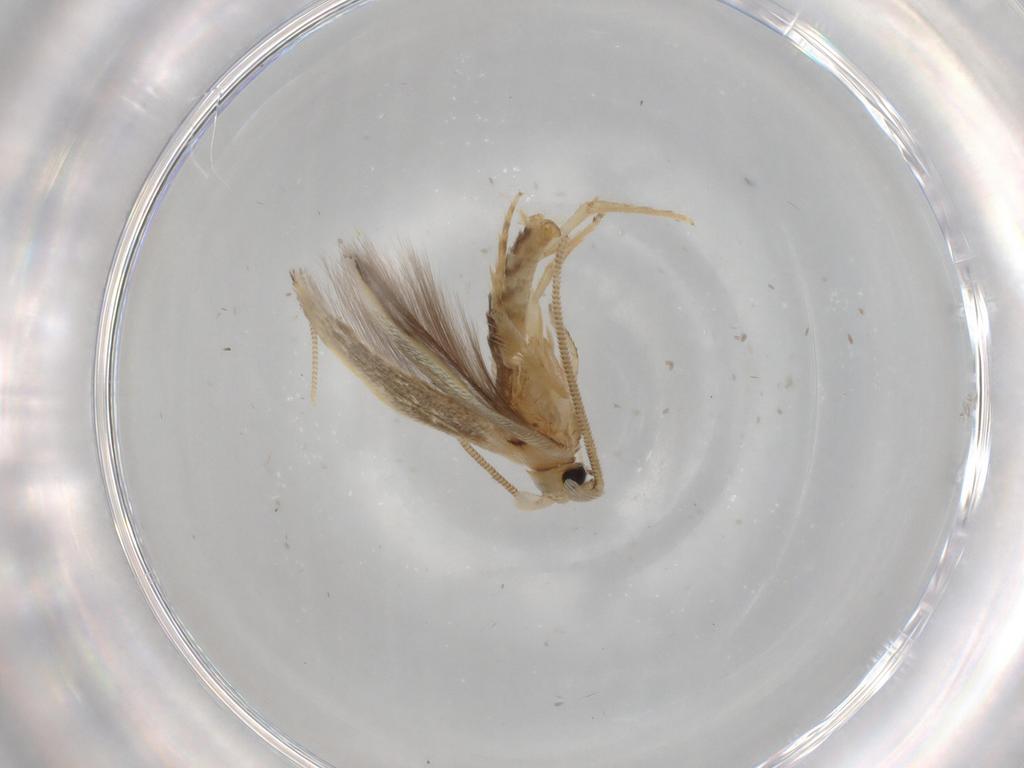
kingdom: Animalia
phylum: Arthropoda
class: Insecta
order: Lepidoptera
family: Opostegidae
